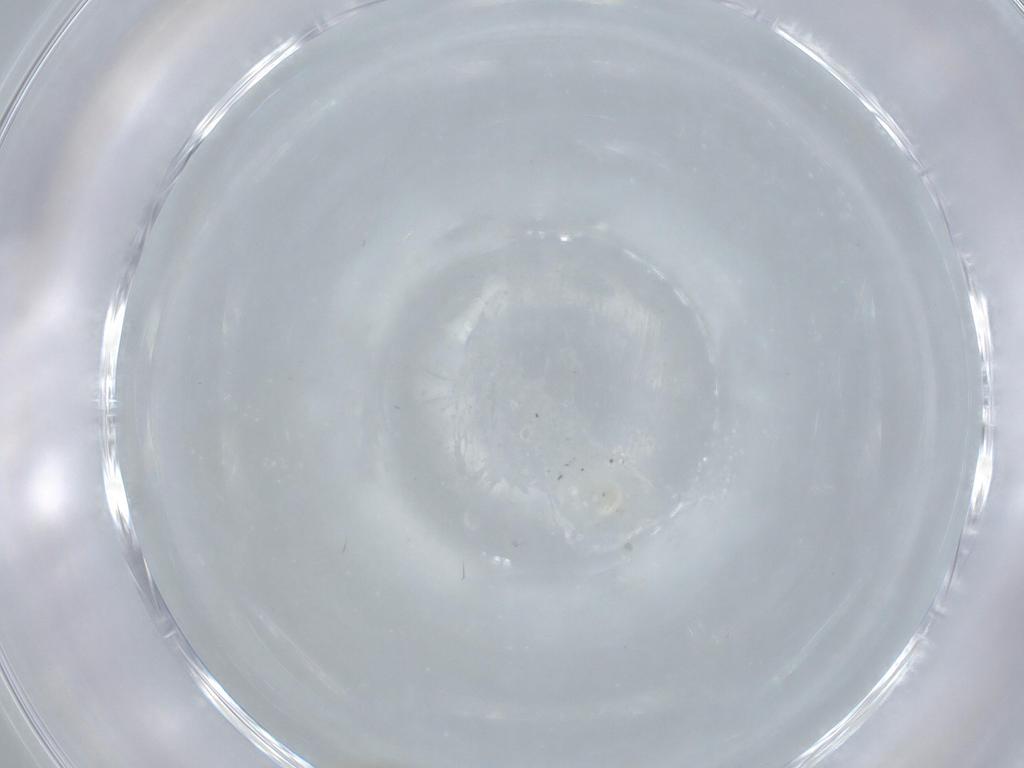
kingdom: Animalia
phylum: Arthropoda
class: Insecta
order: Diptera
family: Cecidomyiidae
